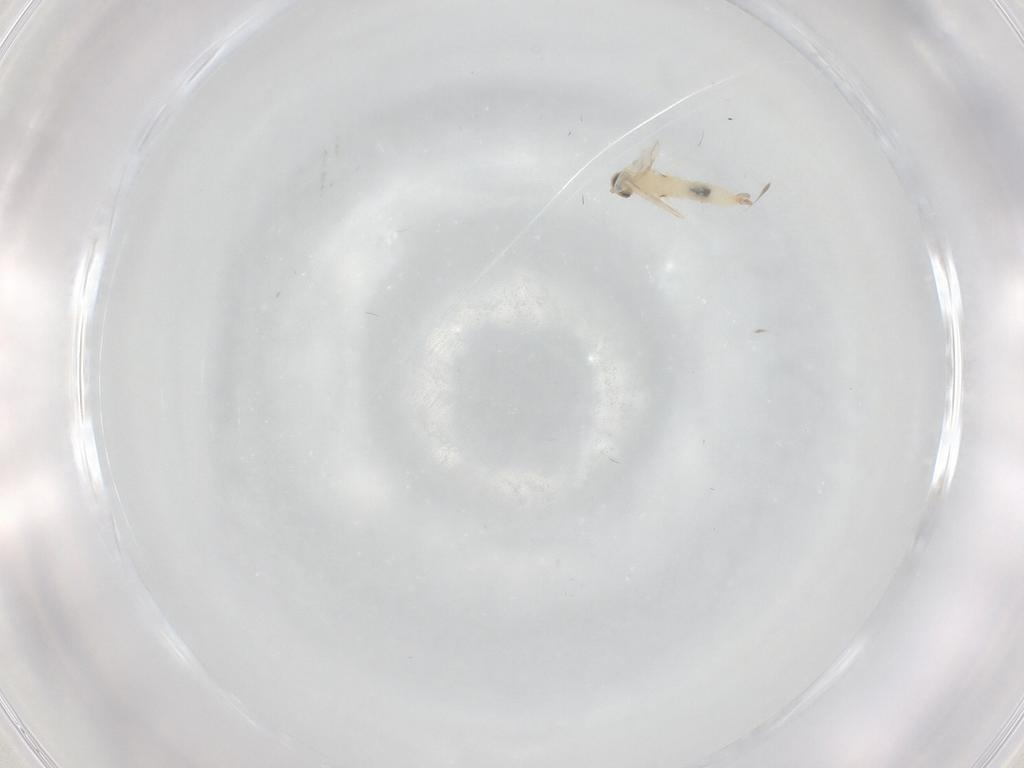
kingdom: Animalia
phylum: Arthropoda
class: Insecta
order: Diptera
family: Cecidomyiidae
